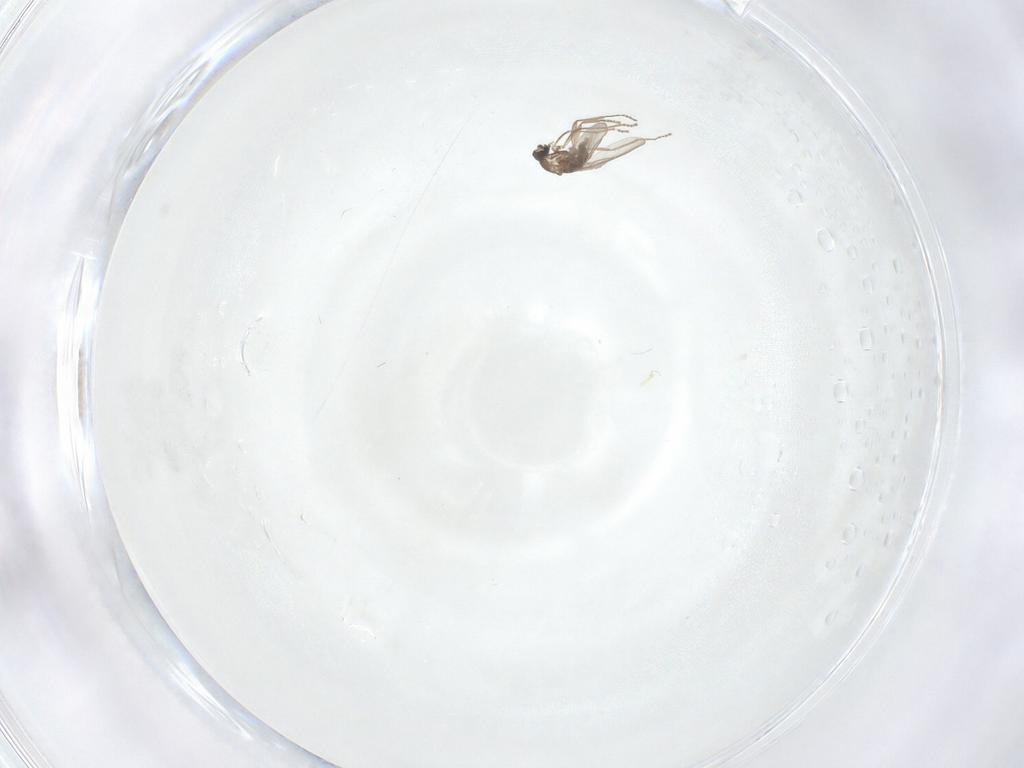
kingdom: Animalia
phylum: Arthropoda
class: Insecta
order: Diptera
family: Cecidomyiidae
